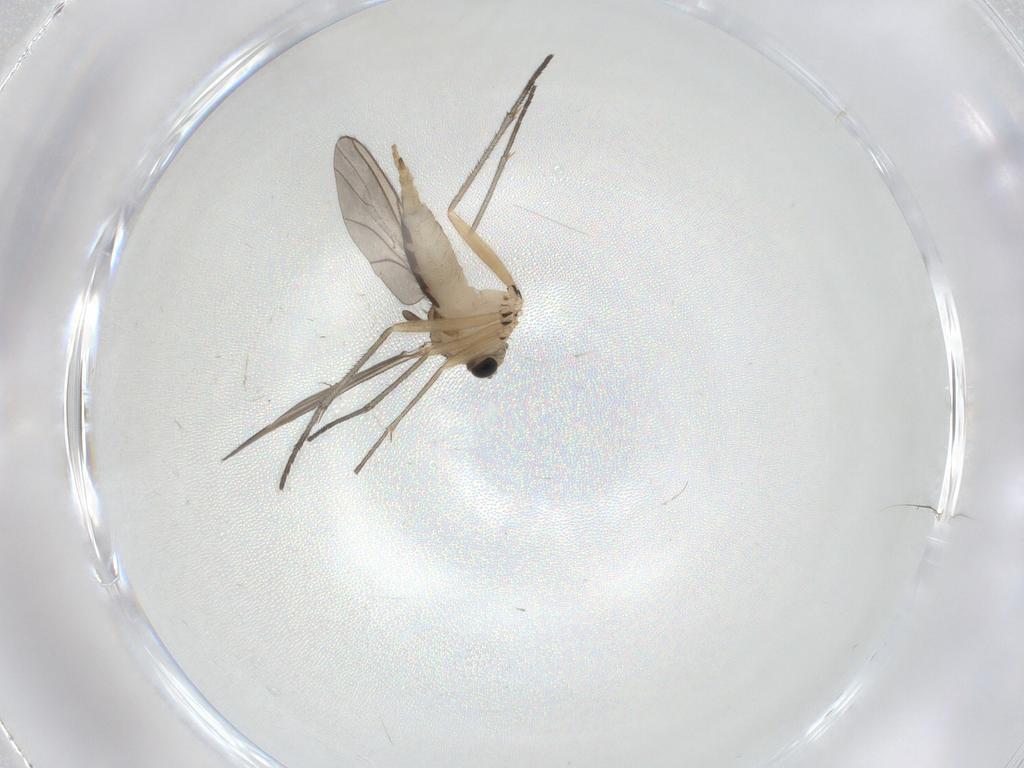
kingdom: Animalia
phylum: Arthropoda
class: Insecta
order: Diptera
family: Sciaridae
